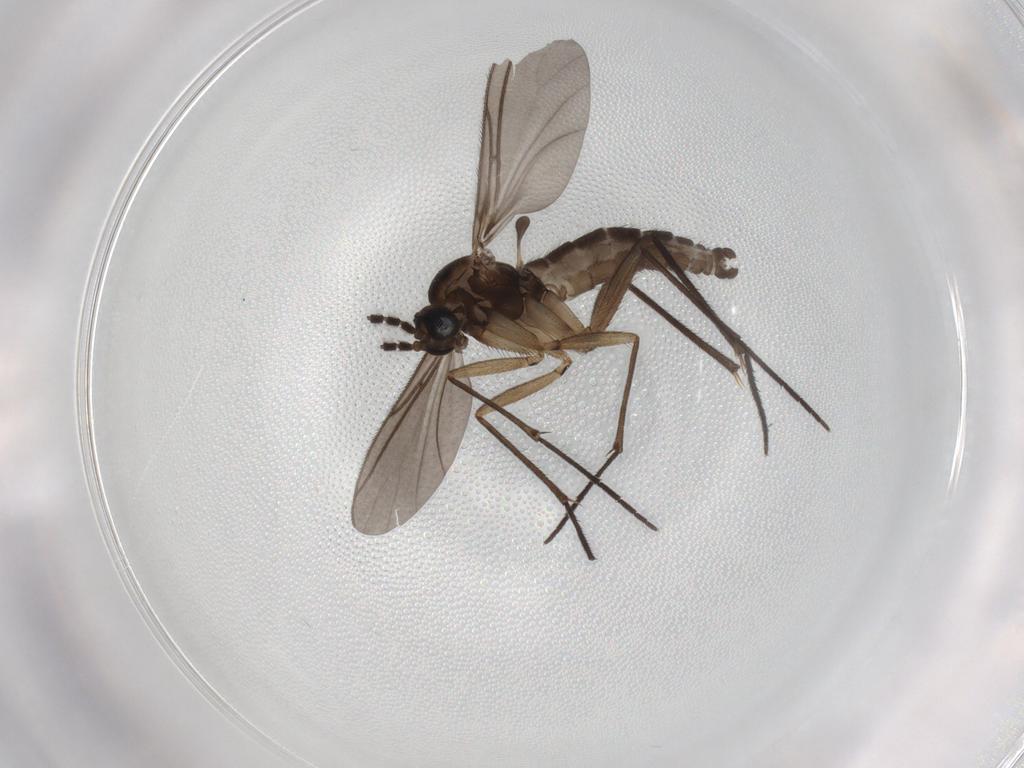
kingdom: Animalia
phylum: Arthropoda
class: Insecta
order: Diptera
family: Sciaridae
